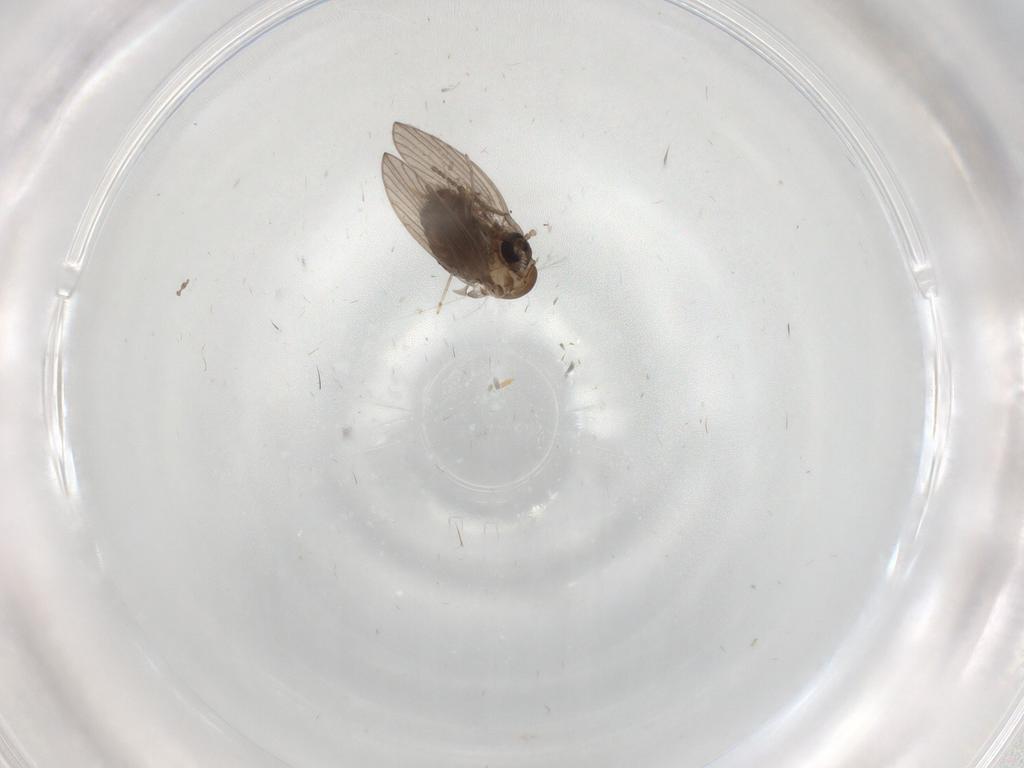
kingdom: Animalia
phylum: Arthropoda
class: Insecta
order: Diptera
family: Psychodidae
